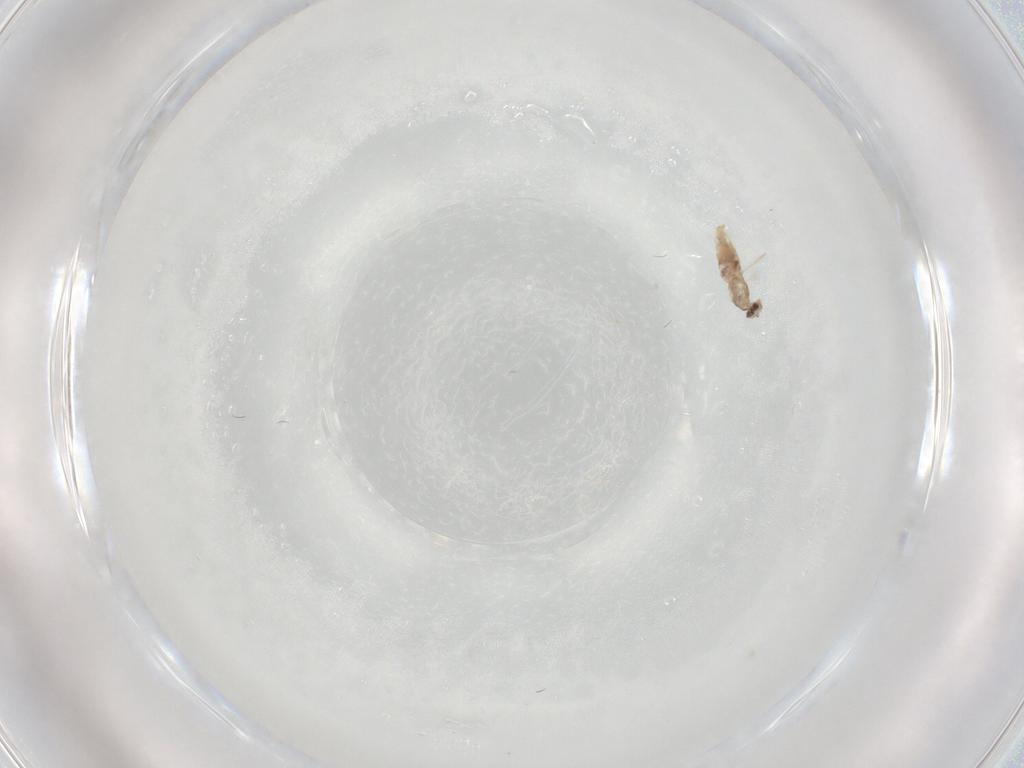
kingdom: Animalia
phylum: Arthropoda
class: Insecta
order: Diptera
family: Cecidomyiidae
